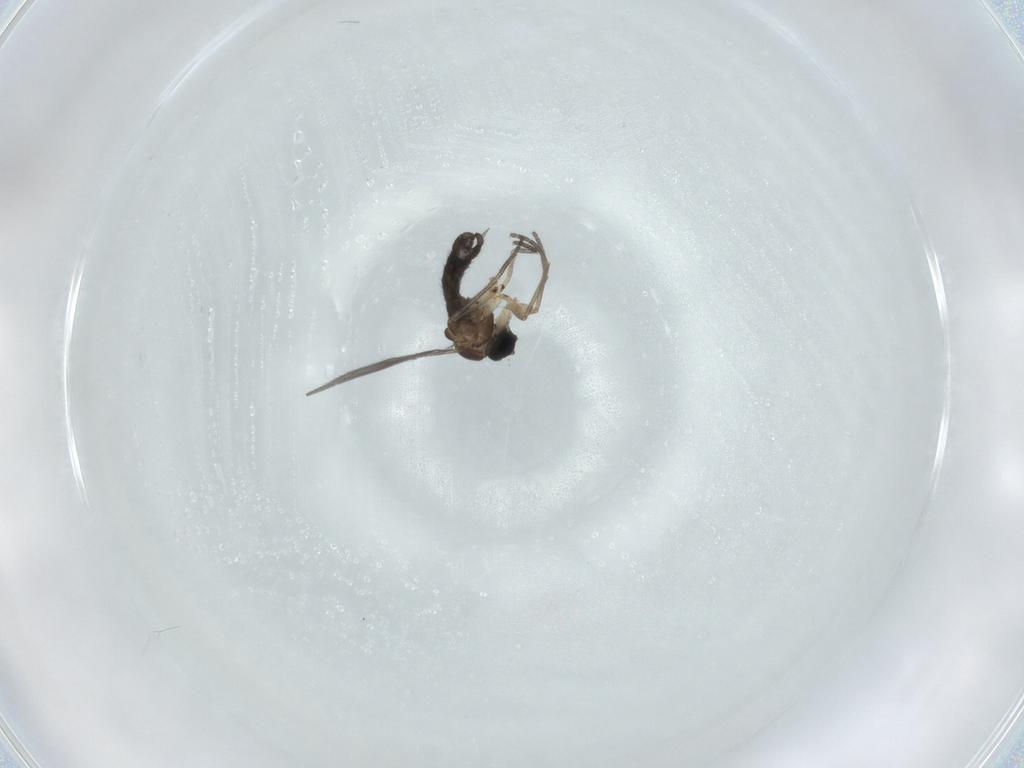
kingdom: Animalia
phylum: Arthropoda
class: Insecta
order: Diptera
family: Sciaridae
